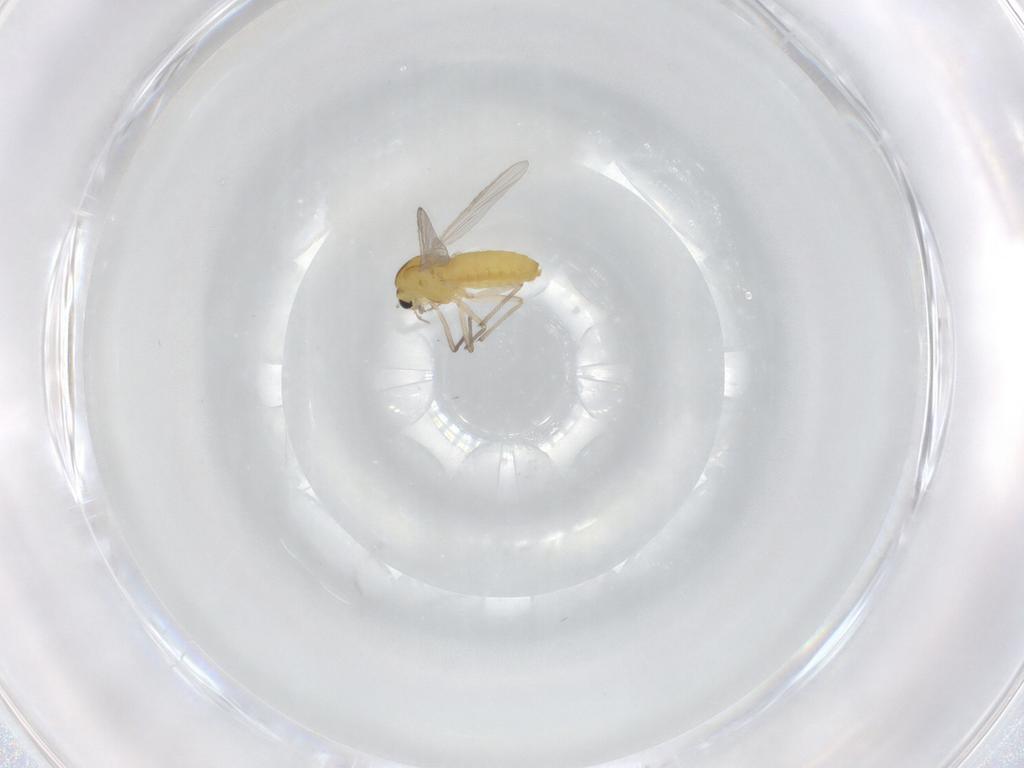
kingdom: Animalia
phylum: Arthropoda
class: Insecta
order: Diptera
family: Chironomidae
